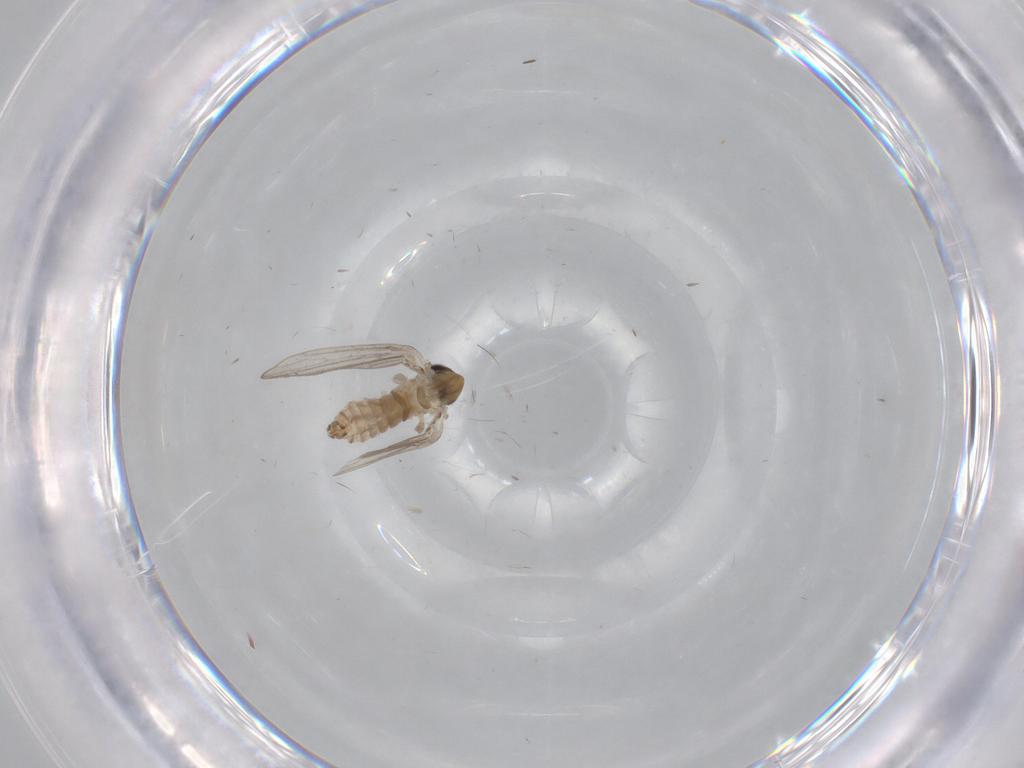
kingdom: Animalia
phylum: Arthropoda
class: Insecta
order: Diptera
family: Cecidomyiidae
